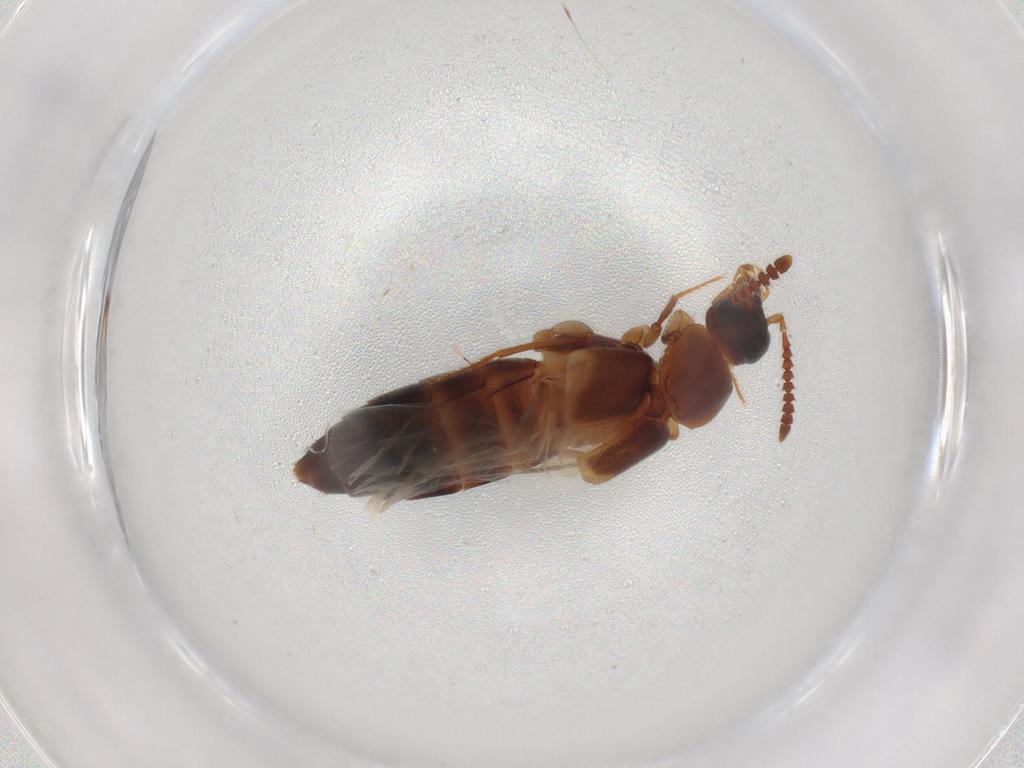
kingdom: Animalia
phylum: Arthropoda
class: Insecta
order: Coleoptera
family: Staphylinidae
